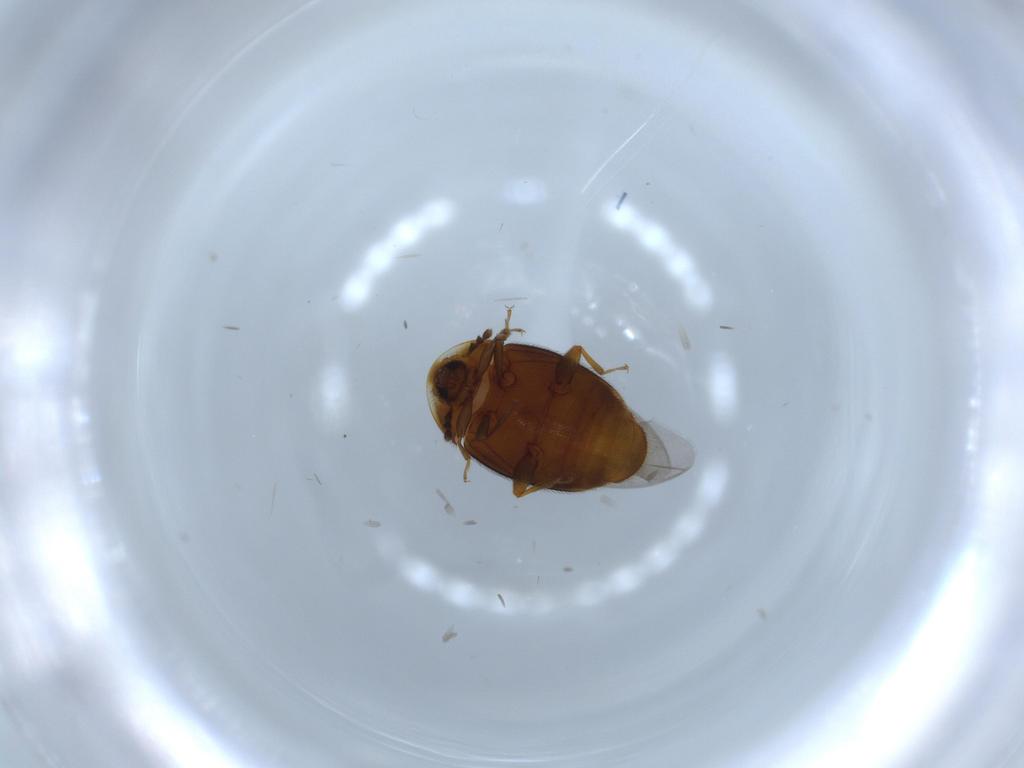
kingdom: Animalia
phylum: Arthropoda
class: Insecta
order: Coleoptera
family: Corylophidae
